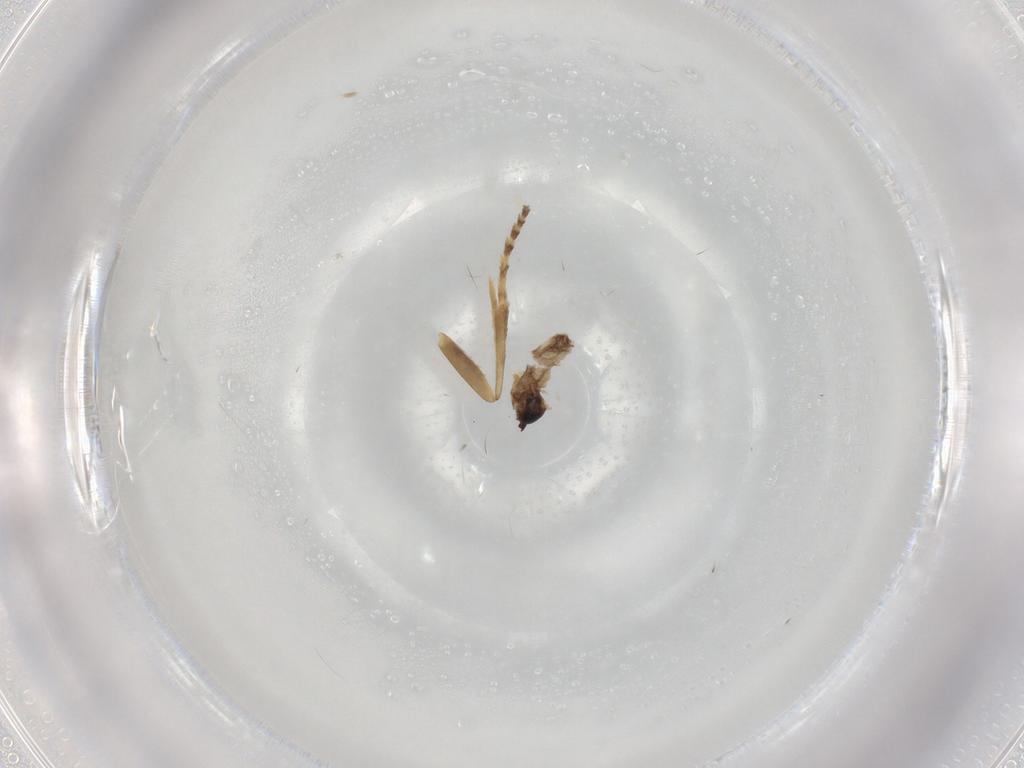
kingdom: Animalia
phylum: Arthropoda
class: Insecta
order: Diptera
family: Cecidomyiidae
